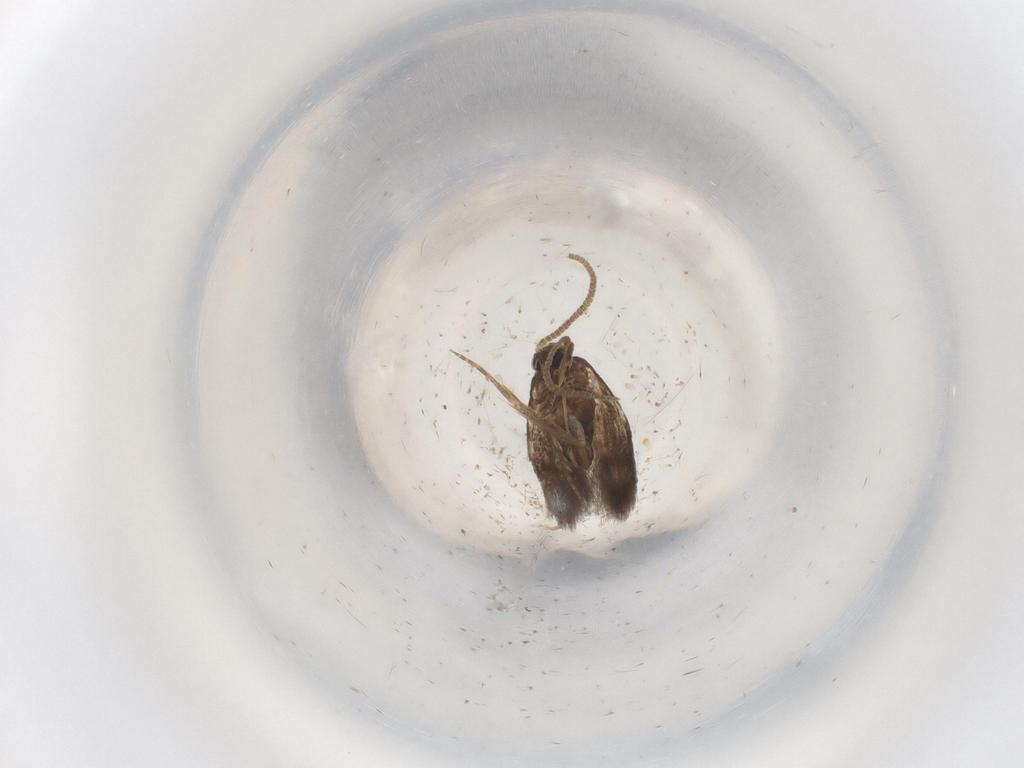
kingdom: Animalia
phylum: Arthropoda
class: Insecta
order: Lepidoptera
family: Elachistidae
